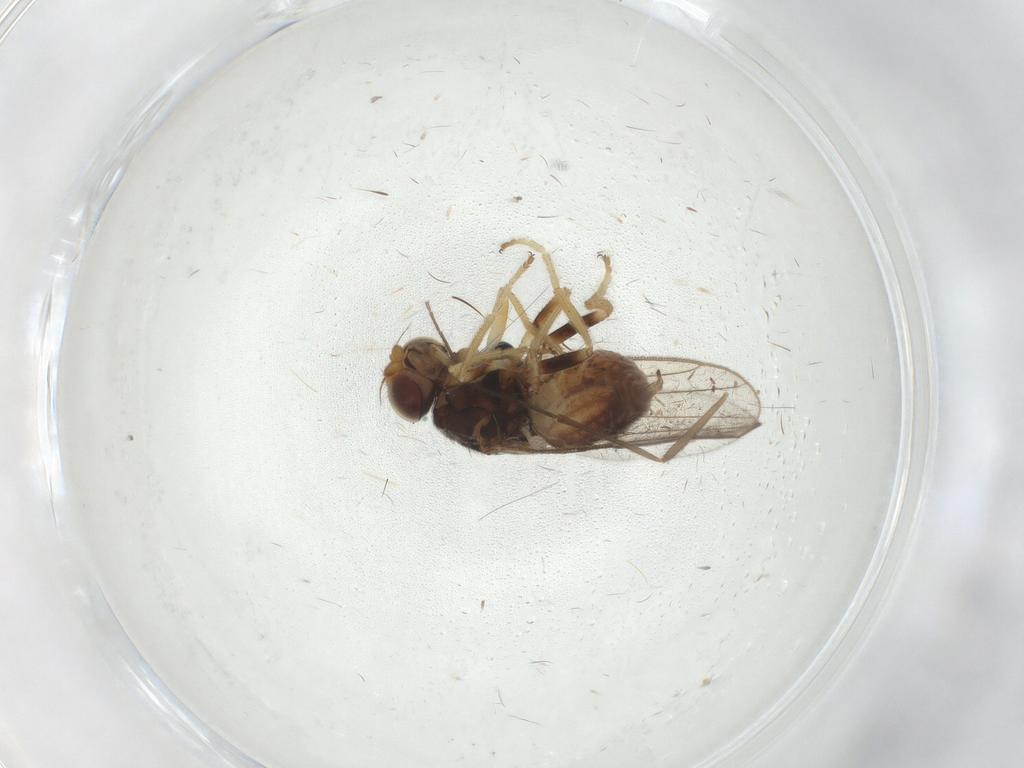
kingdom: Animalia
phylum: Arthropoda
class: Insecta
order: Diptera
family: Chloropidae
